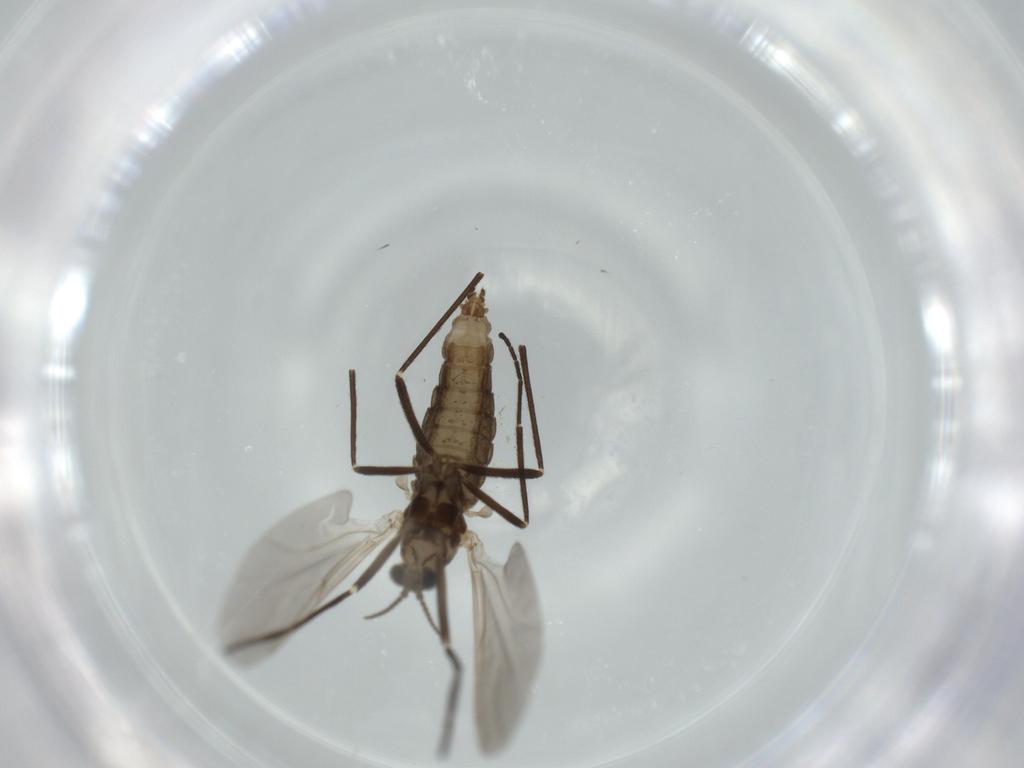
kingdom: Animalia
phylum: Arthropoda
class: Insecta
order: Diptera
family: Cecidomyiidae
